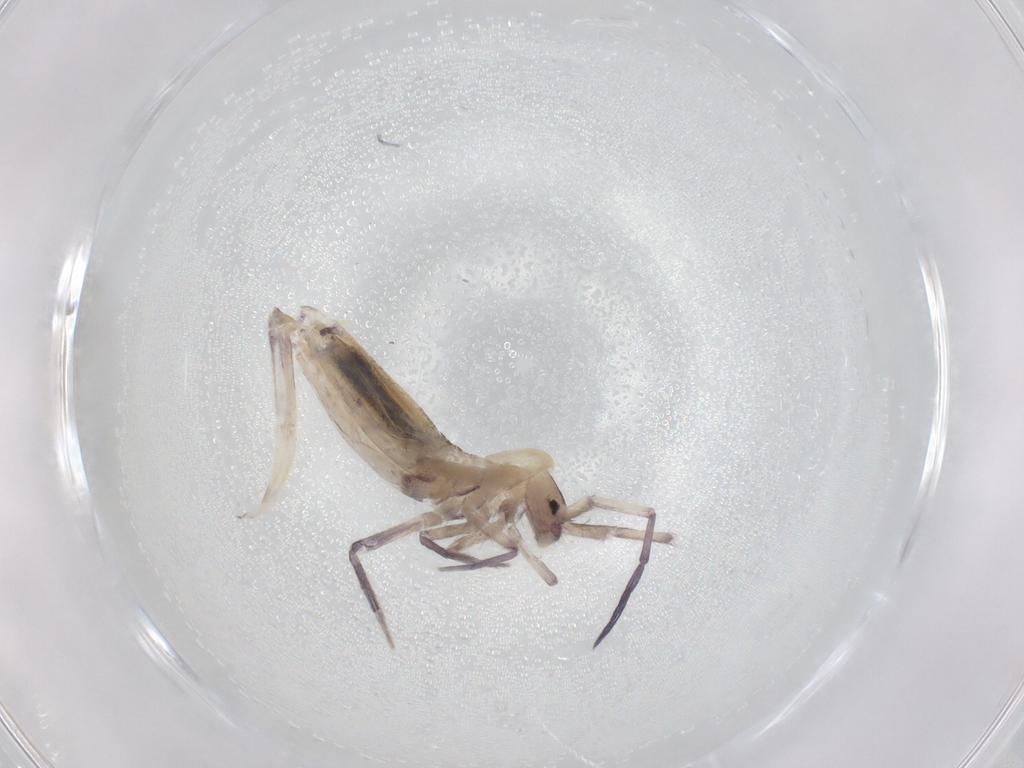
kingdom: Animalia
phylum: Arthropoda
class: Collembola
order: Entomobryomorpha
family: Entomobryidae
